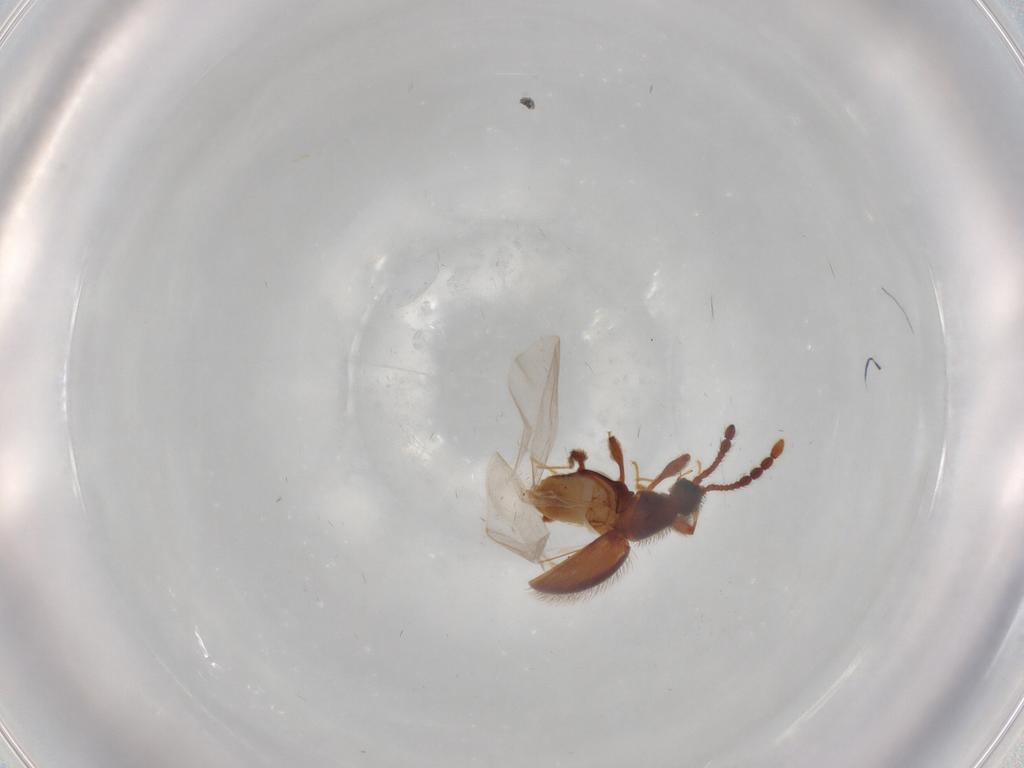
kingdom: Animalia
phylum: Arthropoda
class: Insecta
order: Coleoptera
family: Staphylinidae
